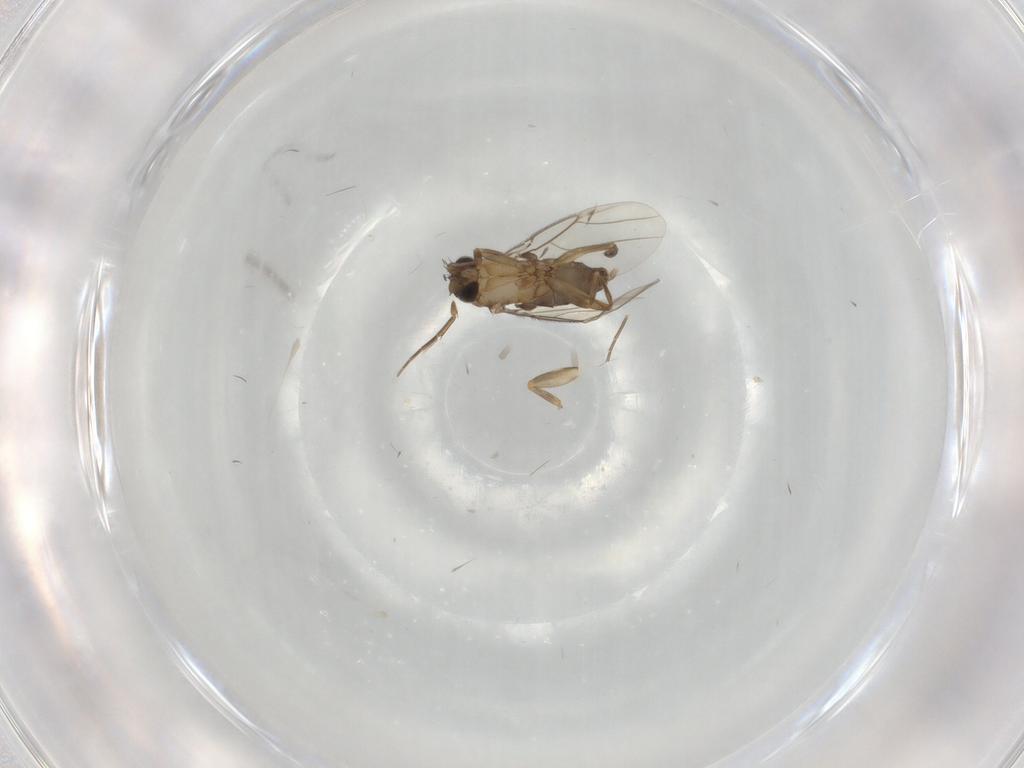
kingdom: Animalia
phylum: Arthropoda
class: Insecta
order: Diptera
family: Phoridae
